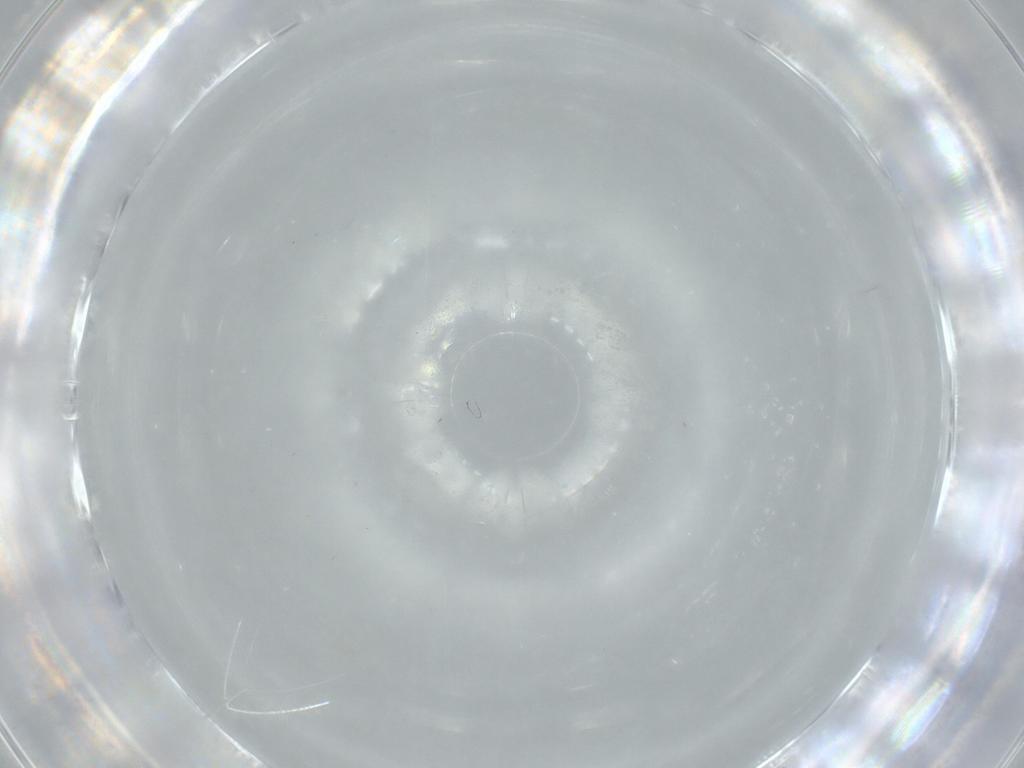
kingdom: Animalia
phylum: Arthropoda
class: Insecta
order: Diptera
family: Cecidomyiidae
